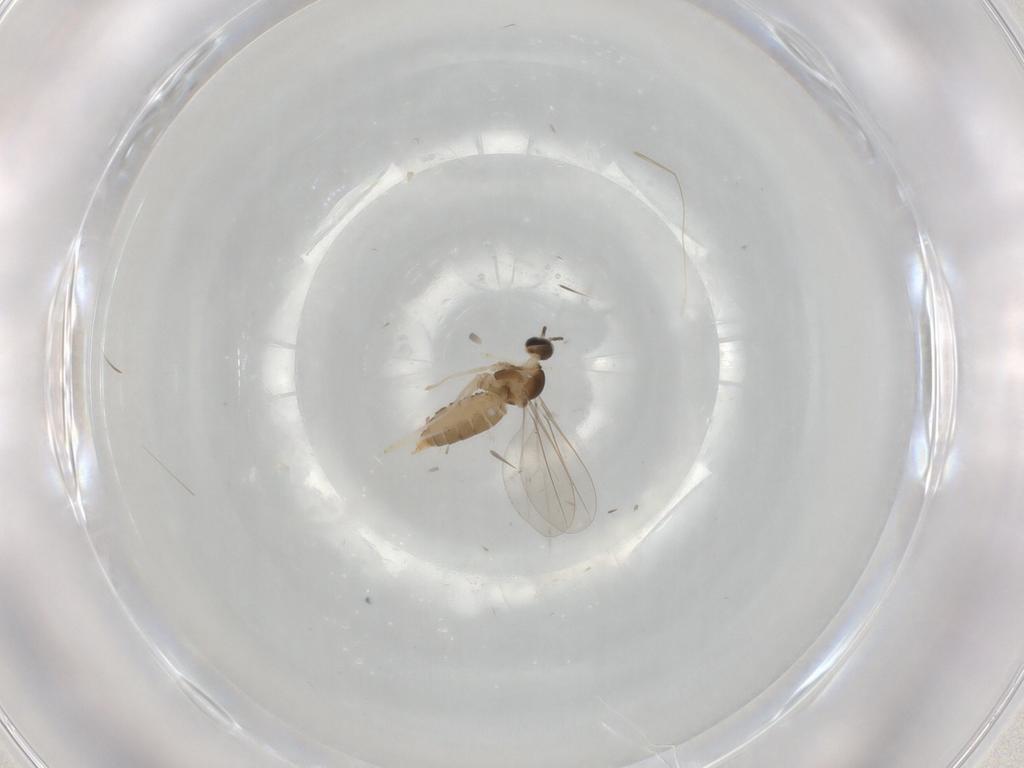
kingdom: Animalia
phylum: Arthropoda
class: Insecta
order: Diptera
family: Cecidomyiidae
